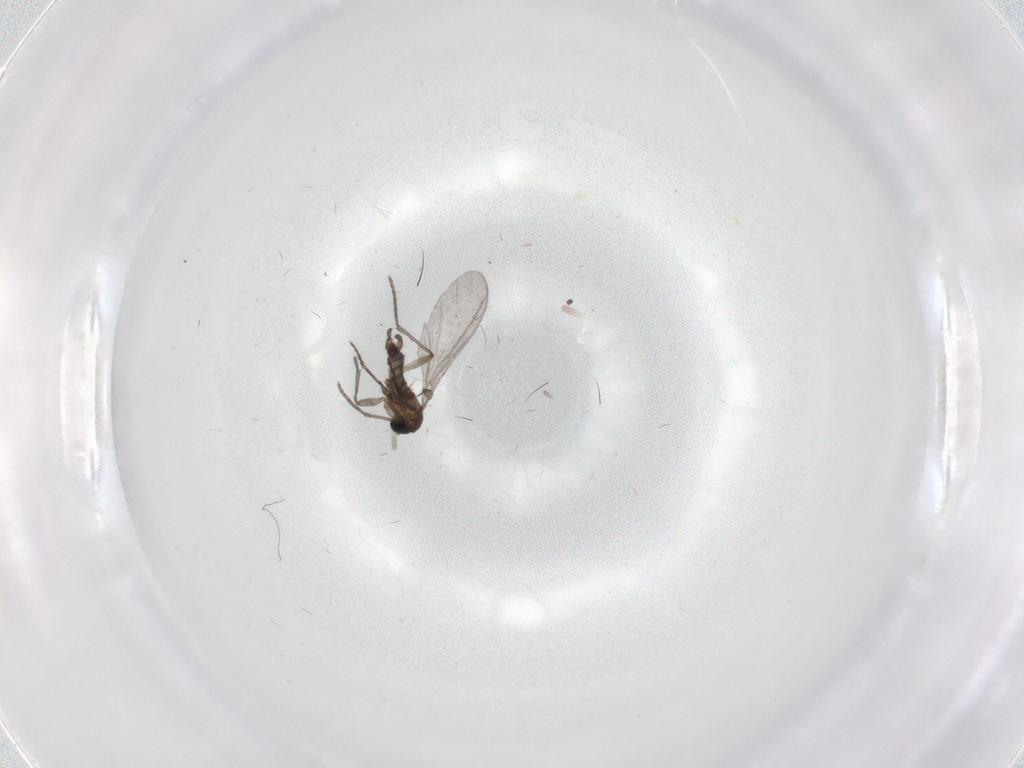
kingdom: Animalia
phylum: Arthropoda
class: Insecta
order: Diptera
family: Sciaridae
